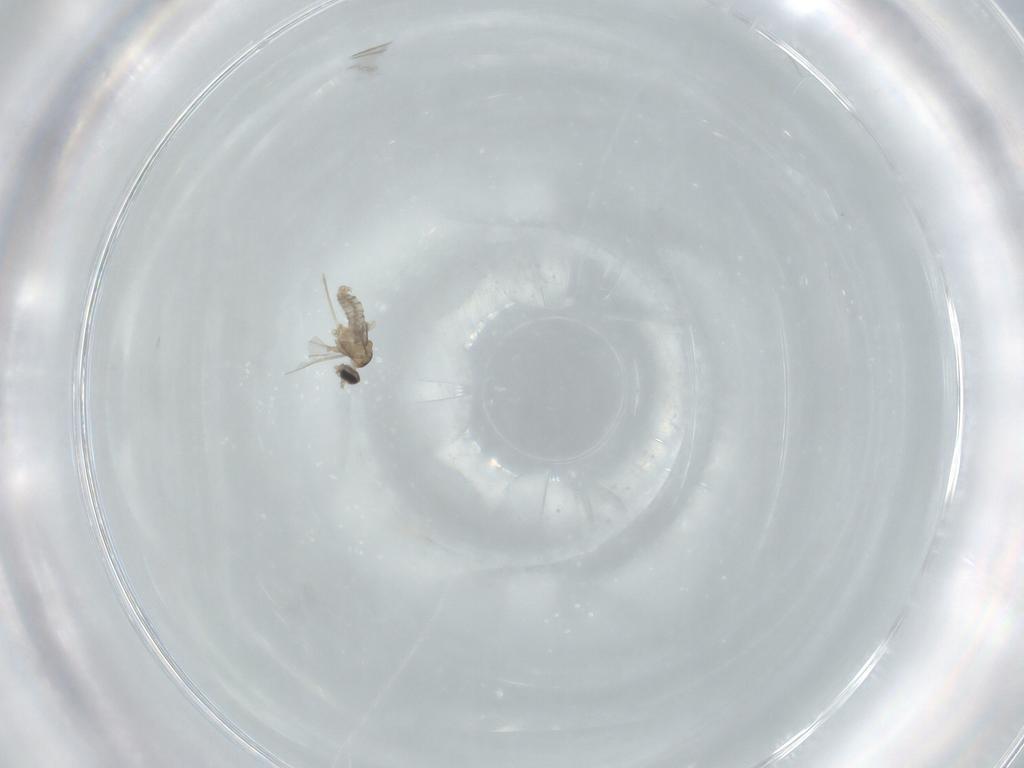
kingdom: Animalia
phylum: Arthropoda
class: Insecta
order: Diptera
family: Cecidomyiidae
